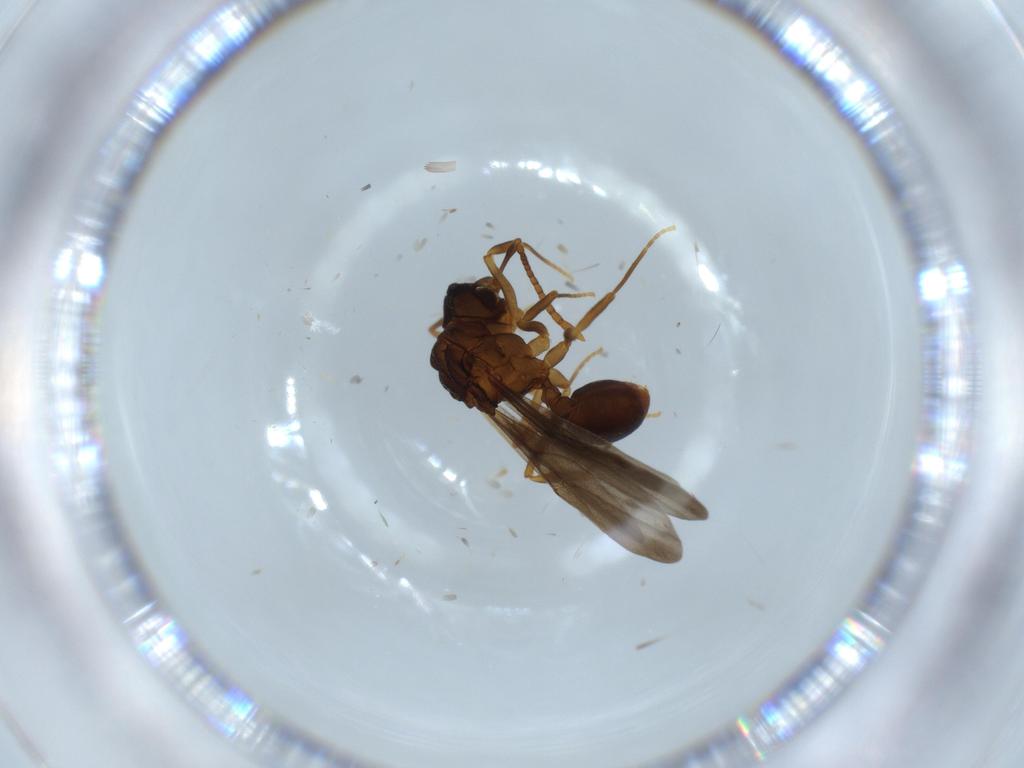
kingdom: Animalia
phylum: Arthropoda
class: Insecta
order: Hymenoptera
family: Formicidae
